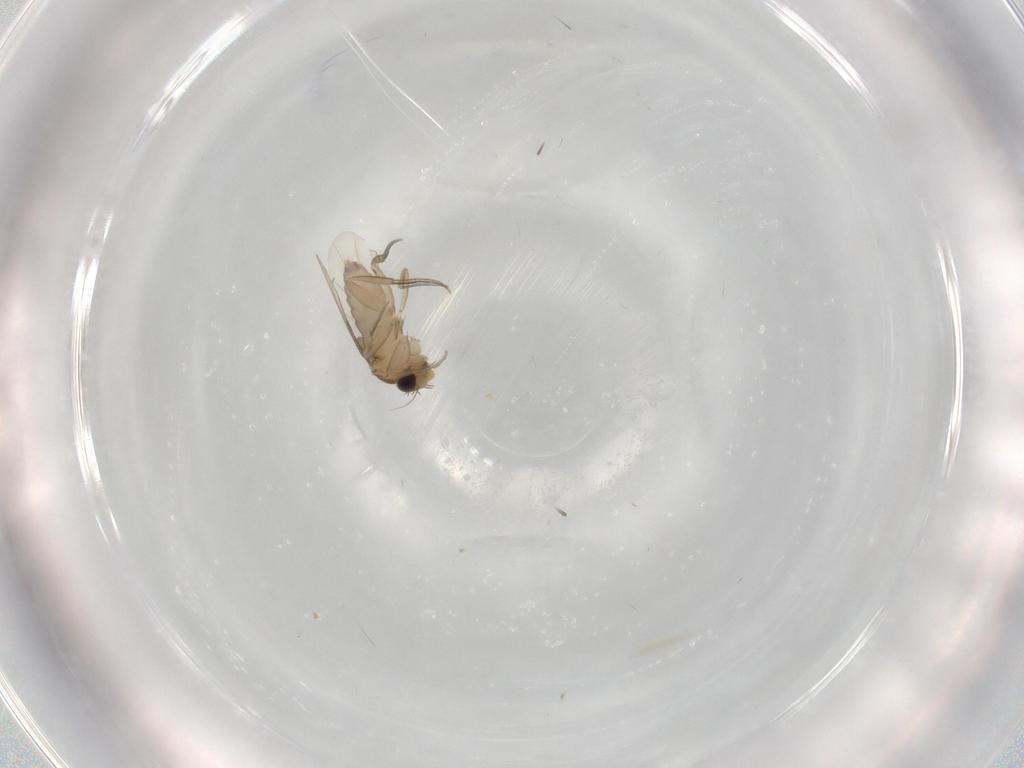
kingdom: Animalia
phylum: Arthropoda
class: Insecta
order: Diptera
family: Phoridae
